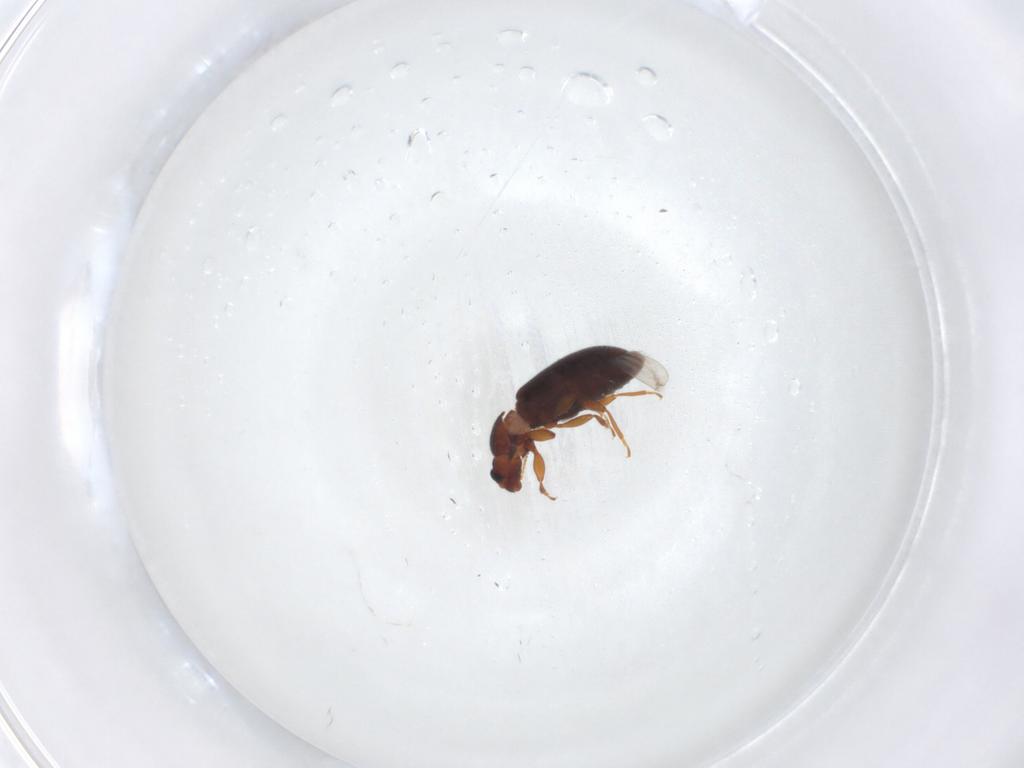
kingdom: Animalia
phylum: Arthropoda
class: Insecta
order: Coleoptera
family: Latridiidae
